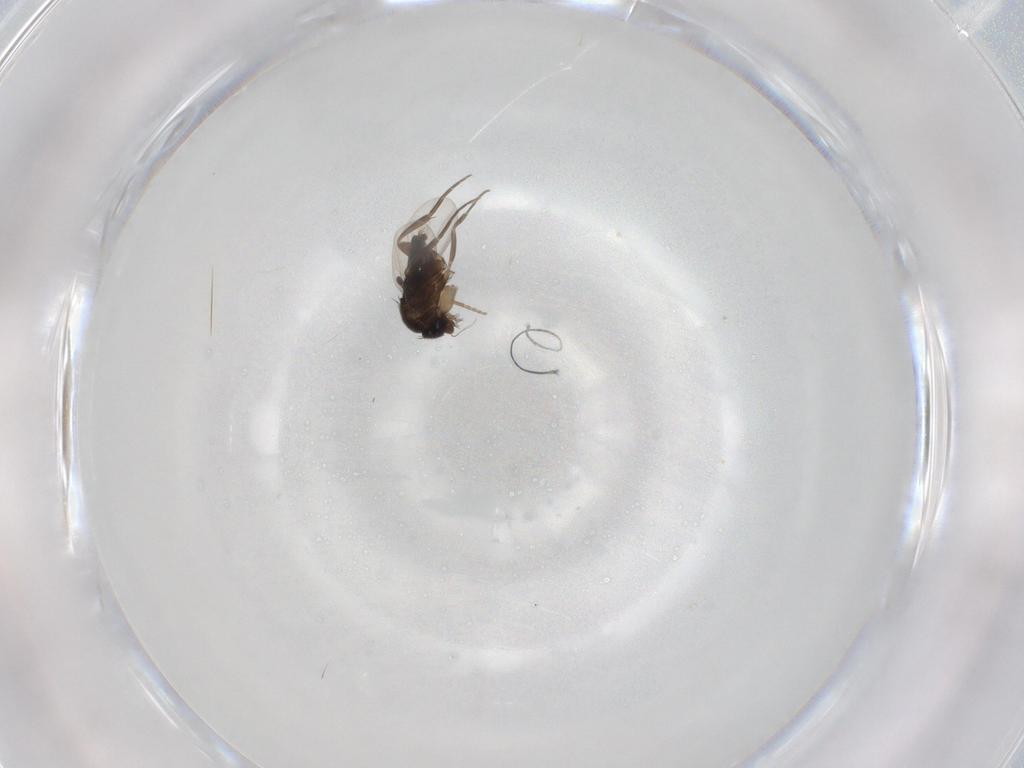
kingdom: Animalia
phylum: Arthropoda
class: Insecta
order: Diptera
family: Phoridae
